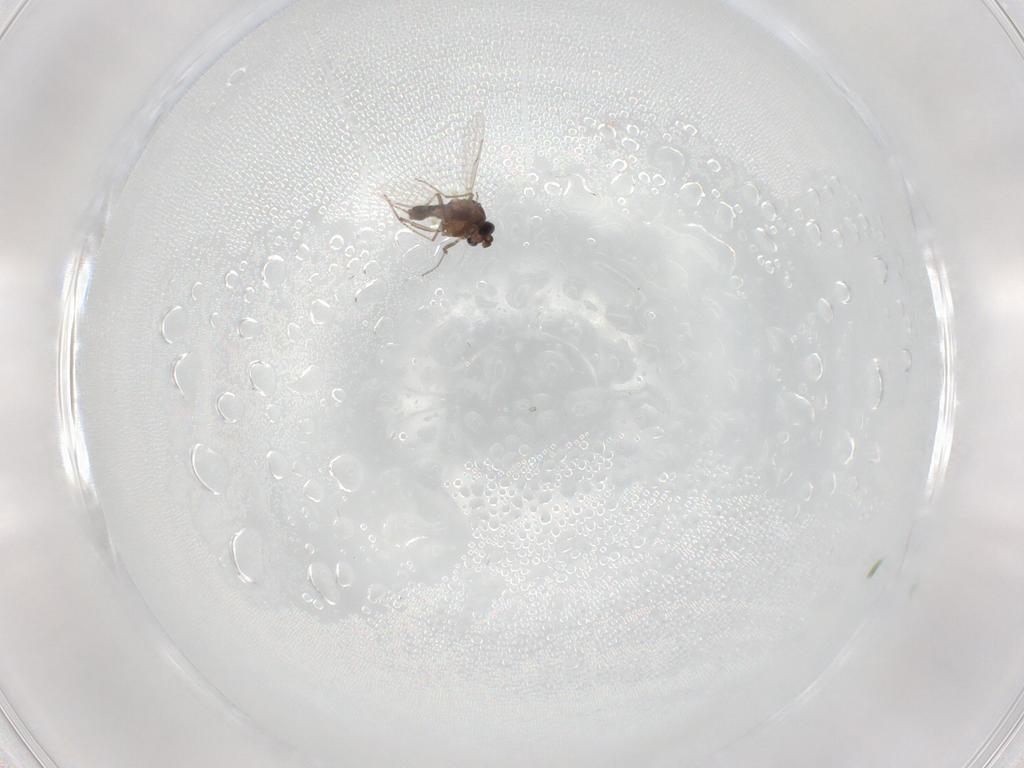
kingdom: Animalia
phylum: Arthropoda
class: Insecta
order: Diptera
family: Ceratopogonidae
